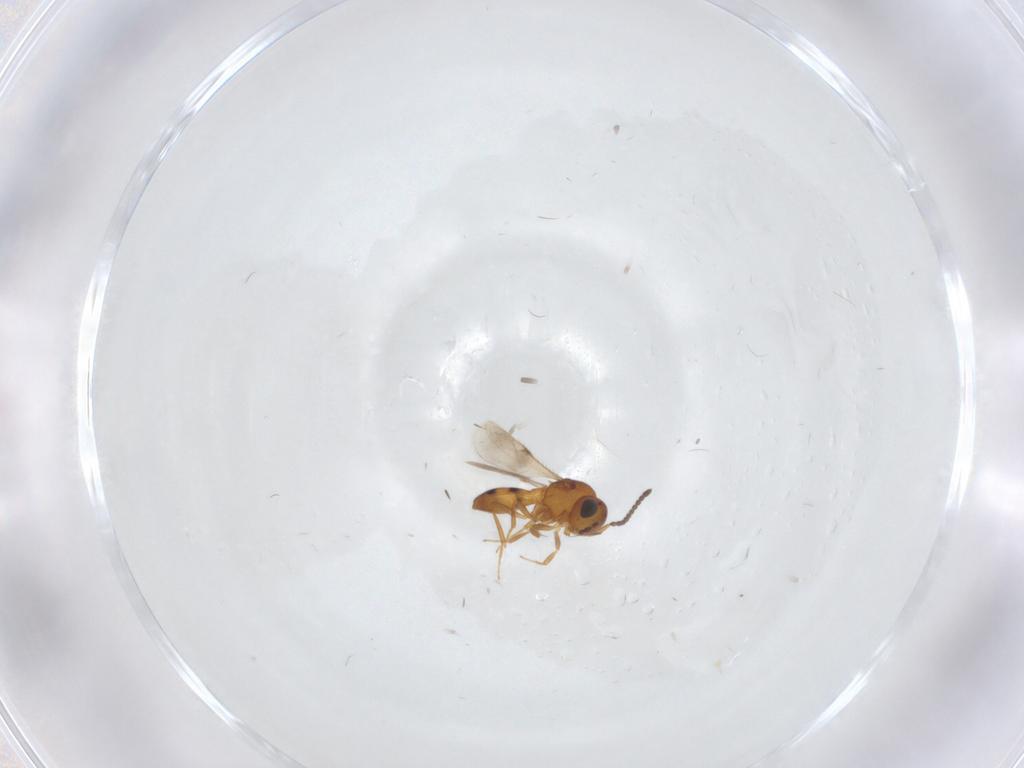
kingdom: Animalia
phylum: Arthropoda
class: Insecta
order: Hymenoptera
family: Scelionidae
